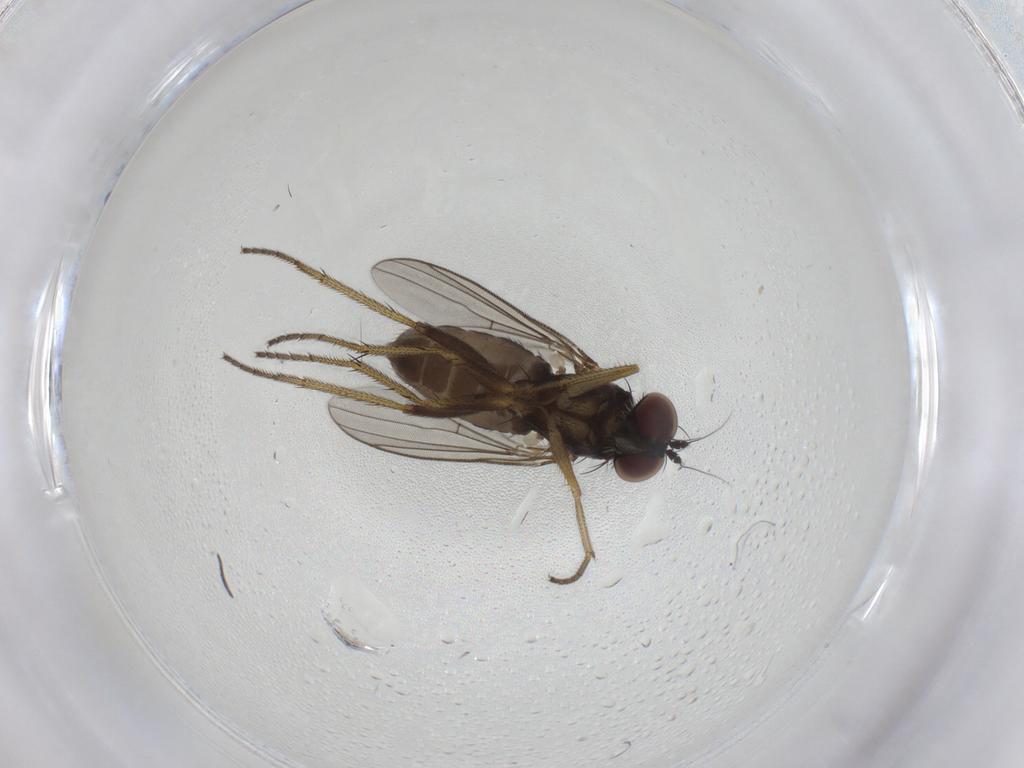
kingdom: Animalia
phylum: Arthropoda
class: Insecta
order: Diptera
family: Dolichopodidae
